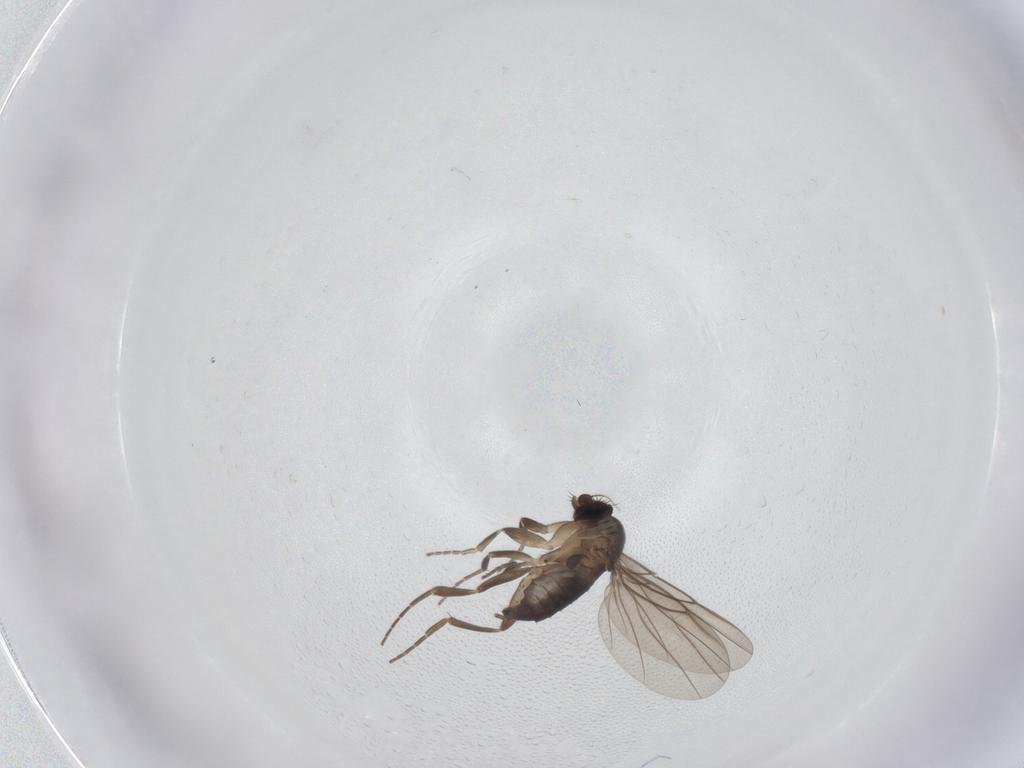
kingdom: Animalia
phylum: Arthropoda
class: Insecta
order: Diptera
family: Phoridae
